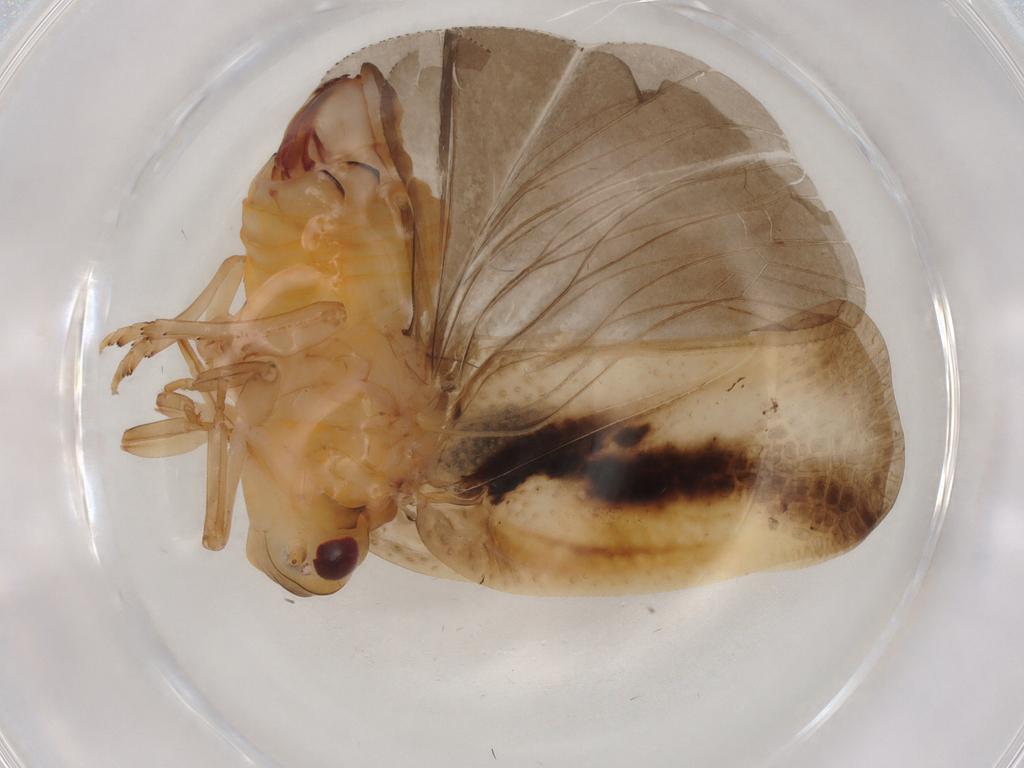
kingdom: Animalia
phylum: Arthropoda
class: Insecta
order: Hemiptera
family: Flatidae
